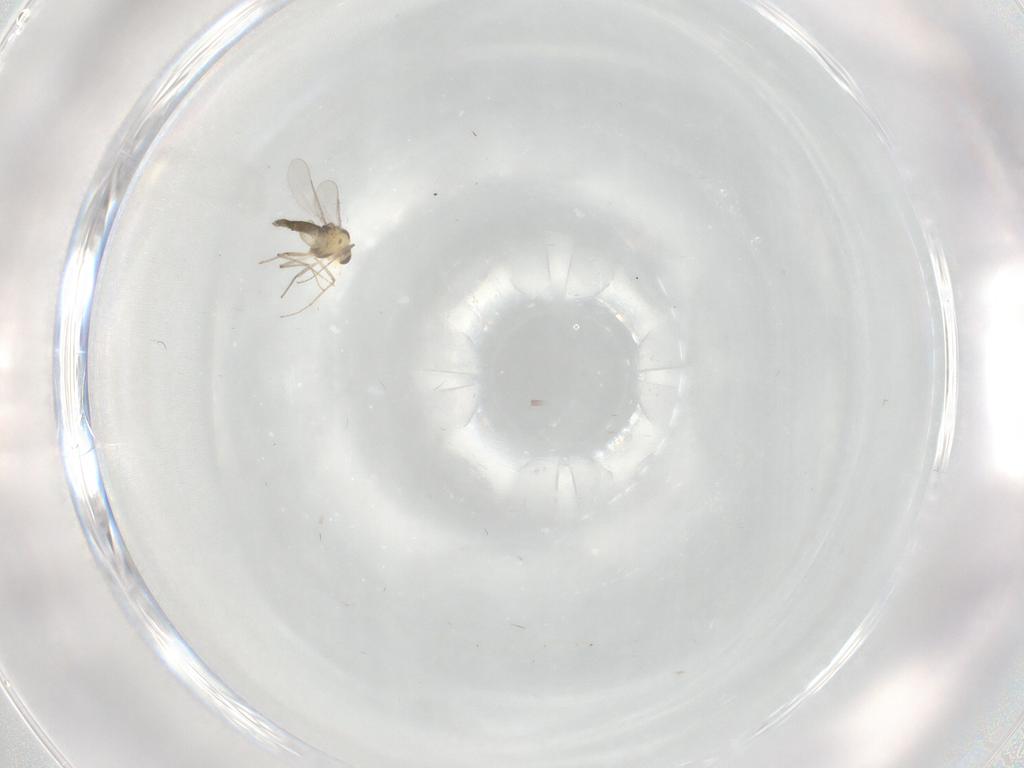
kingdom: Animalia
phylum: Arthropoda
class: Insecta
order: Diptera
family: Chironomidae
